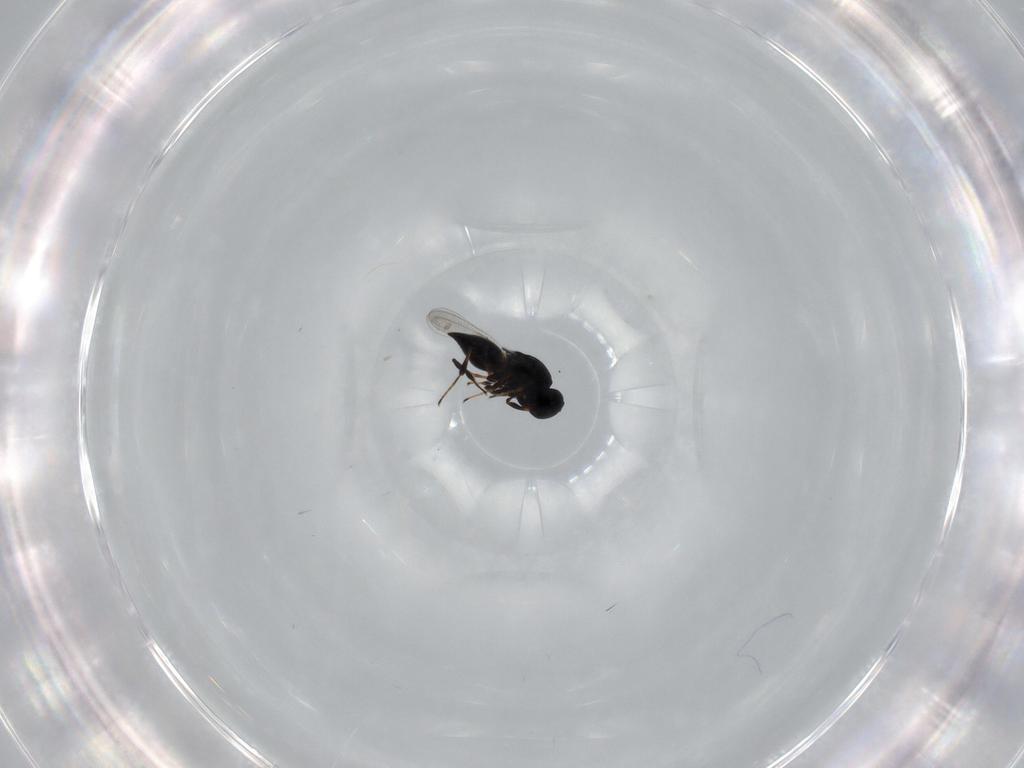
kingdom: Animalia
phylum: Arthropoda
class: Insecta
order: Hymenoptera
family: Platygastridae
